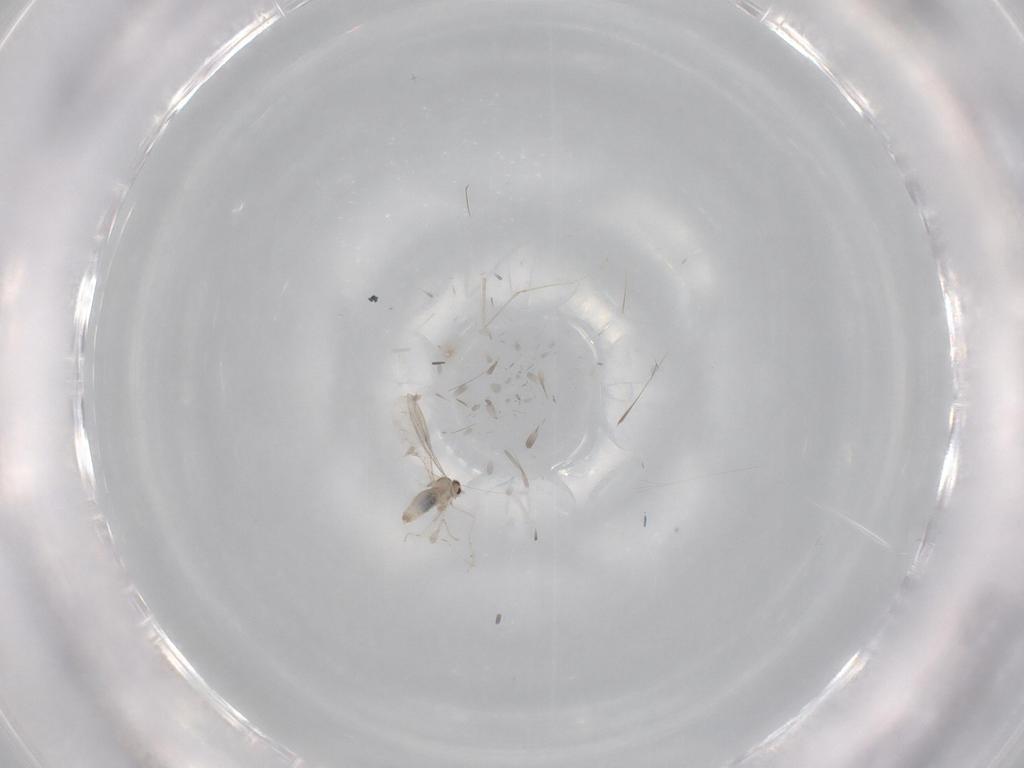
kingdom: Animalia
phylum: Arthropoda
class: Insecta
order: Diptera
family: Cecidomyiidae
